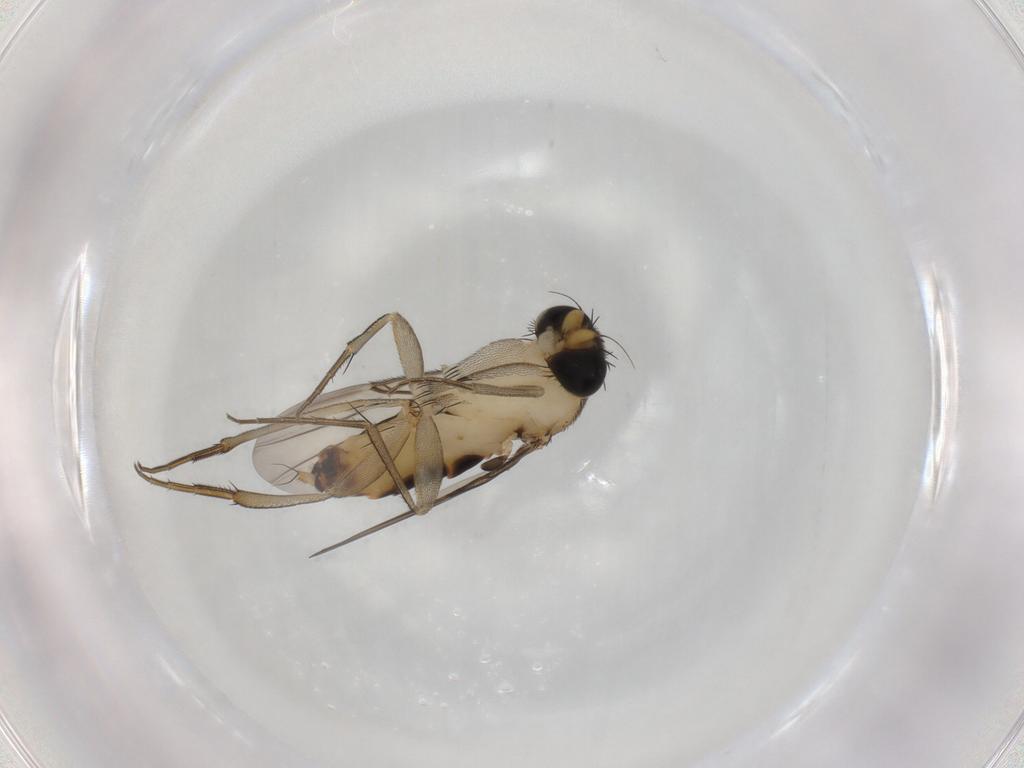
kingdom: Animalia
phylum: Arthropoda
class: Insecta
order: Diptera
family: Phoridae
